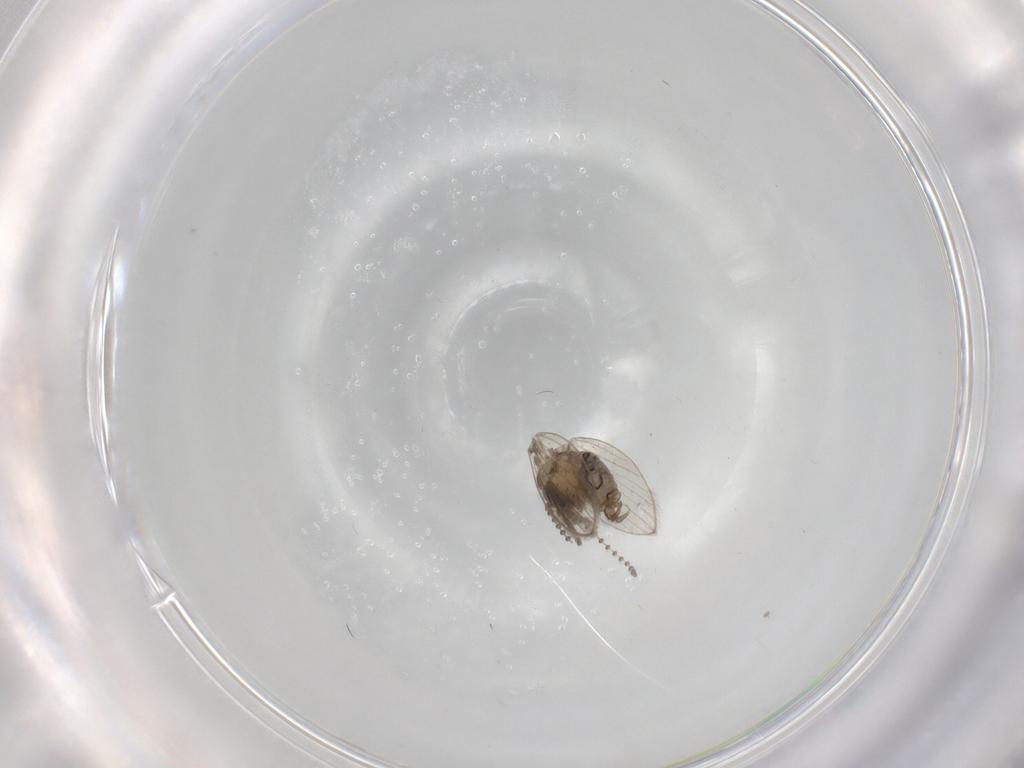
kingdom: Animalia
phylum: Arthropoda
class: Insecta
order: Diptera
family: Psychodidae
